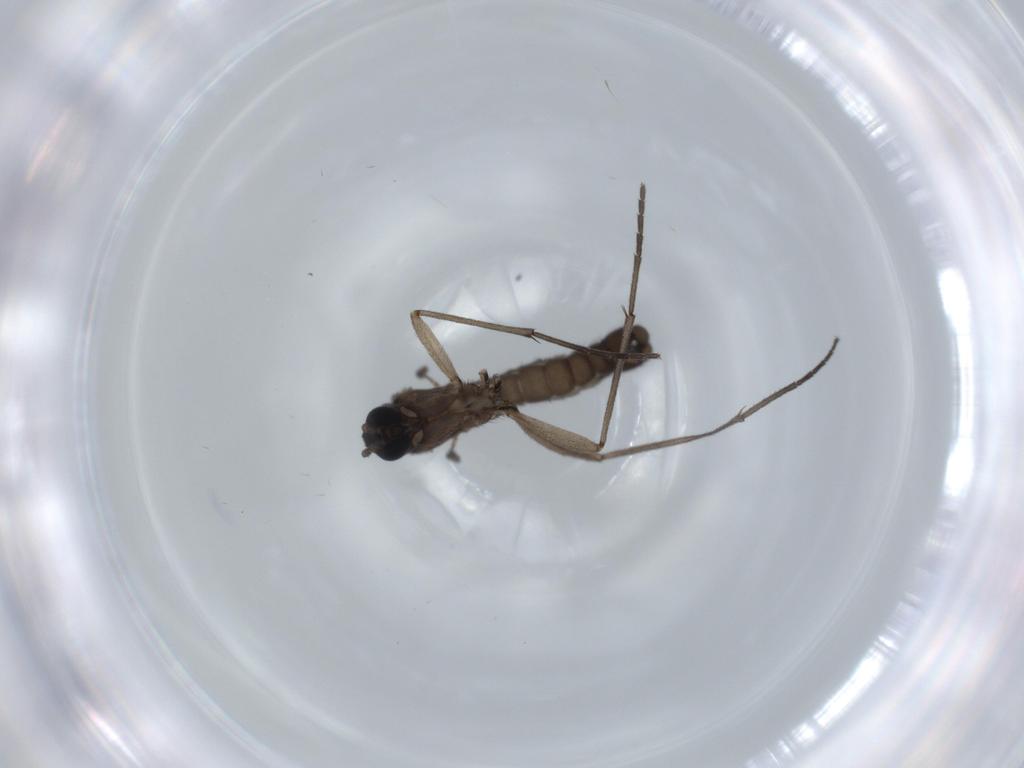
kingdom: Animalia
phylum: Arthropoda
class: Insecta
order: Diptera
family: Sciaridae
